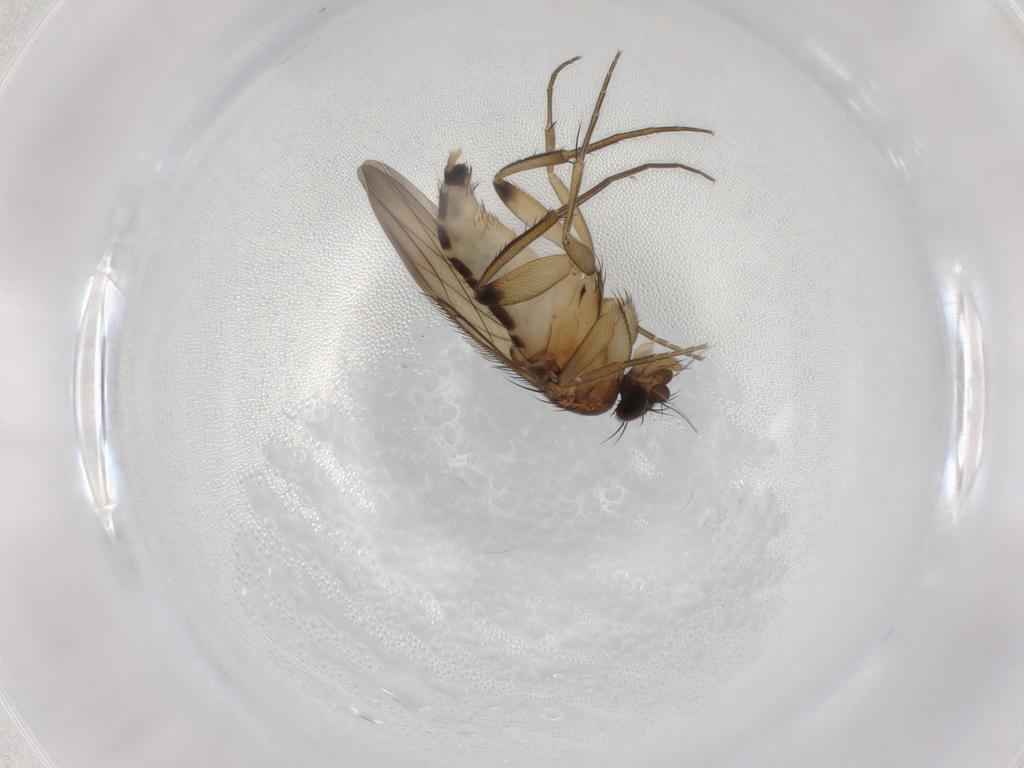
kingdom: Animalia
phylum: Arthropoda
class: Insecta
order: Diptera
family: Phoridae
